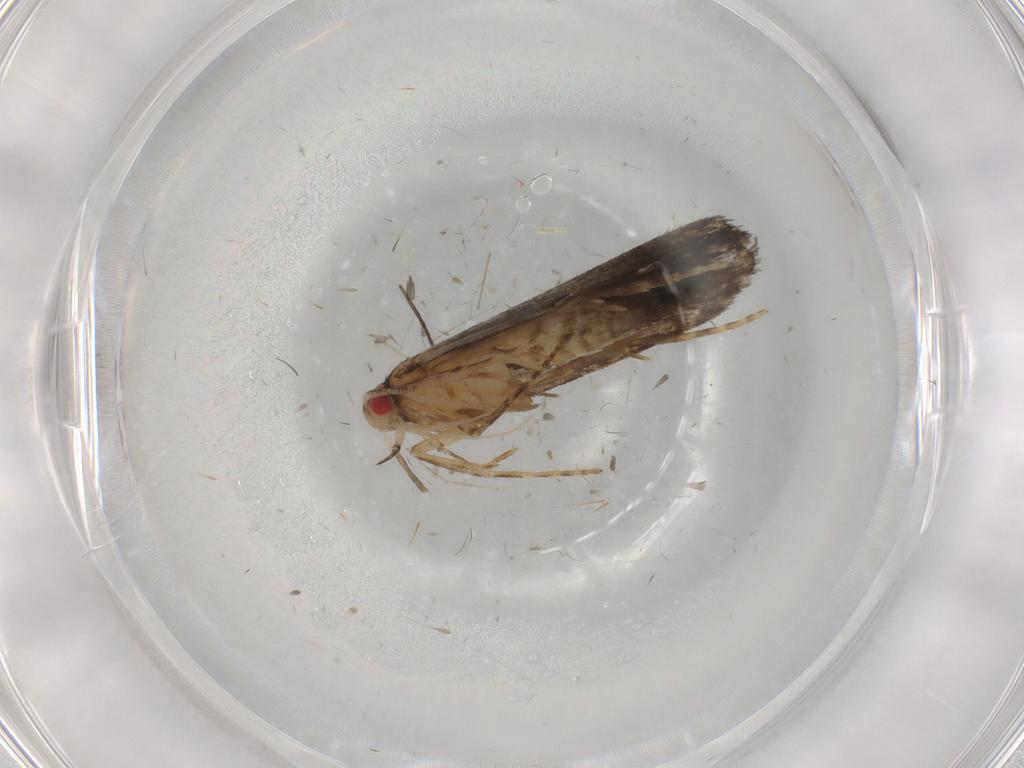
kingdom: Animalia
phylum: Arthropoda
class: Insecta
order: Lepidoptera
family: Gelechiidae
